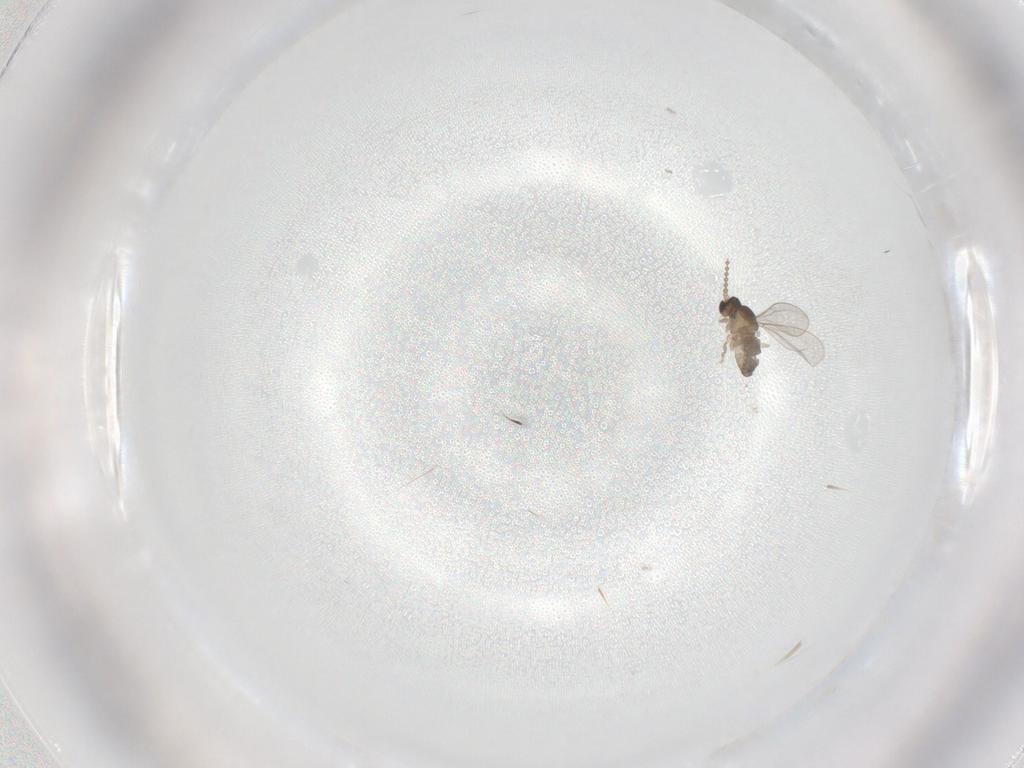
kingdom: Animalia
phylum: Arthropoda
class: Insecta
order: Diptera
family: Cecidomyiidae
